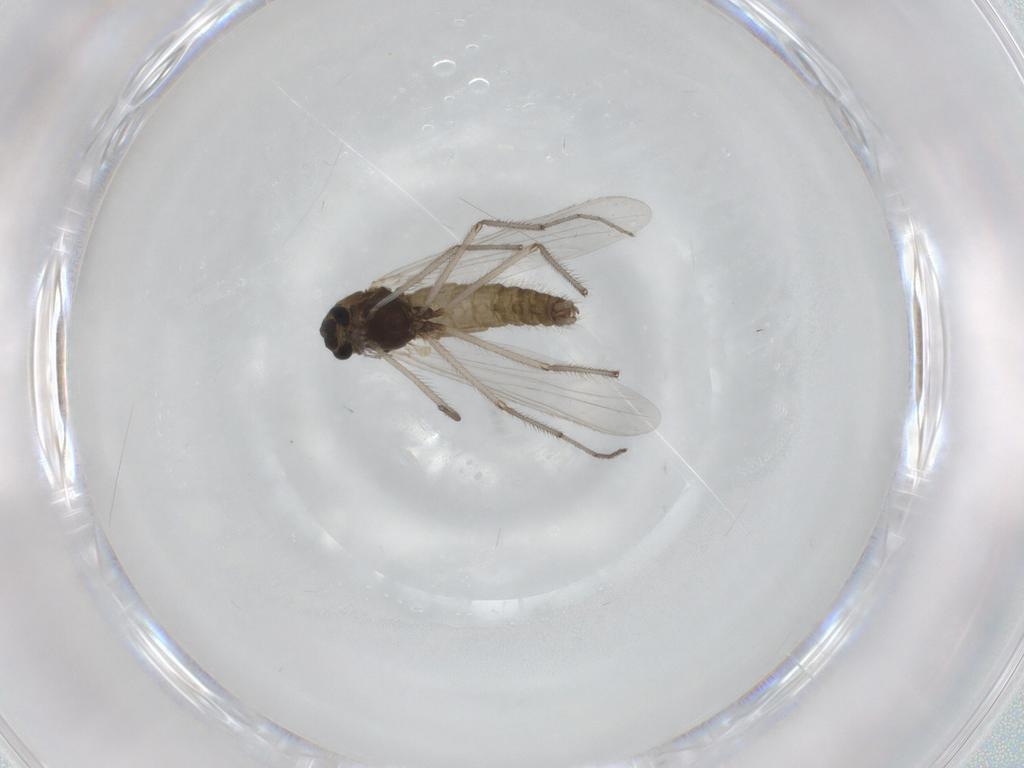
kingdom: Animalia
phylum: Arthropoda
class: Insecta
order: Diptera
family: Chironomidae
